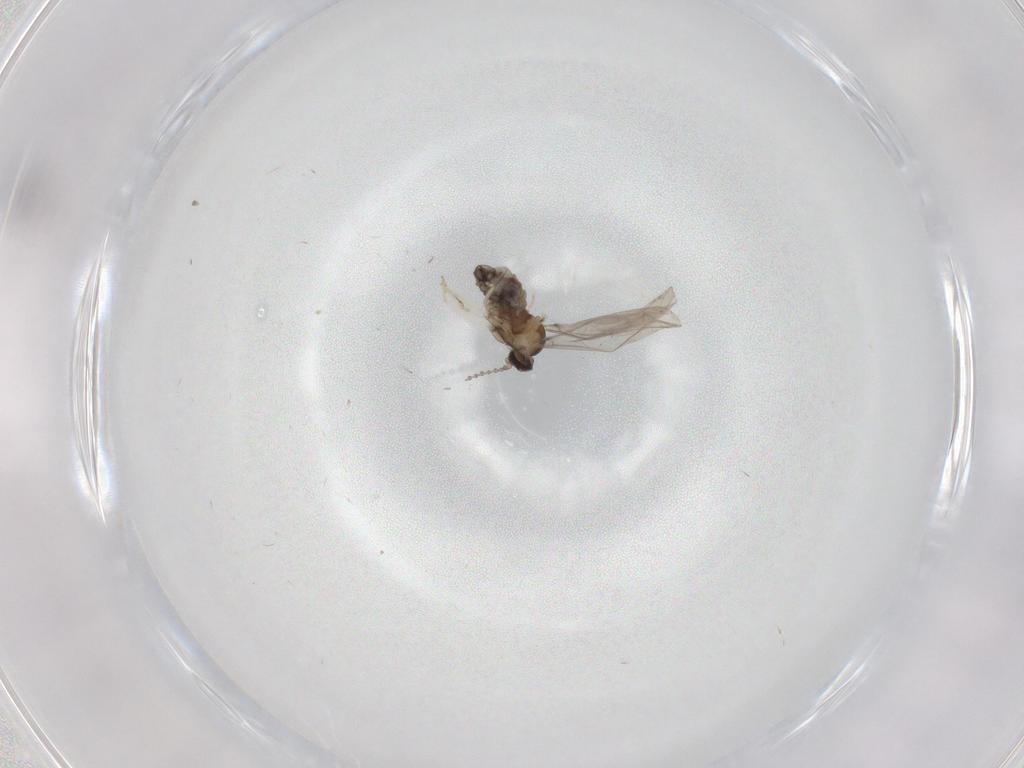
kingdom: Animalia
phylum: Arthropoda
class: Insecta
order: Diptera
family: Cecidomyiidae
